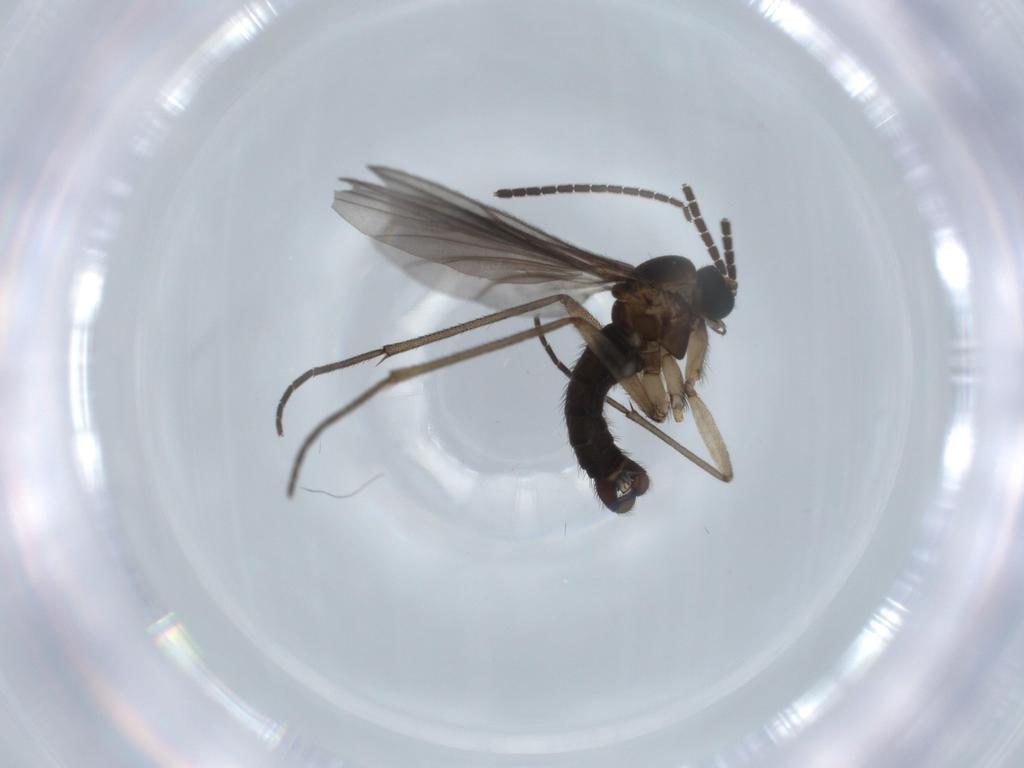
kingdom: Animalia
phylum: Arthropoda
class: Insecta
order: Diptera
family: Sciaridae
